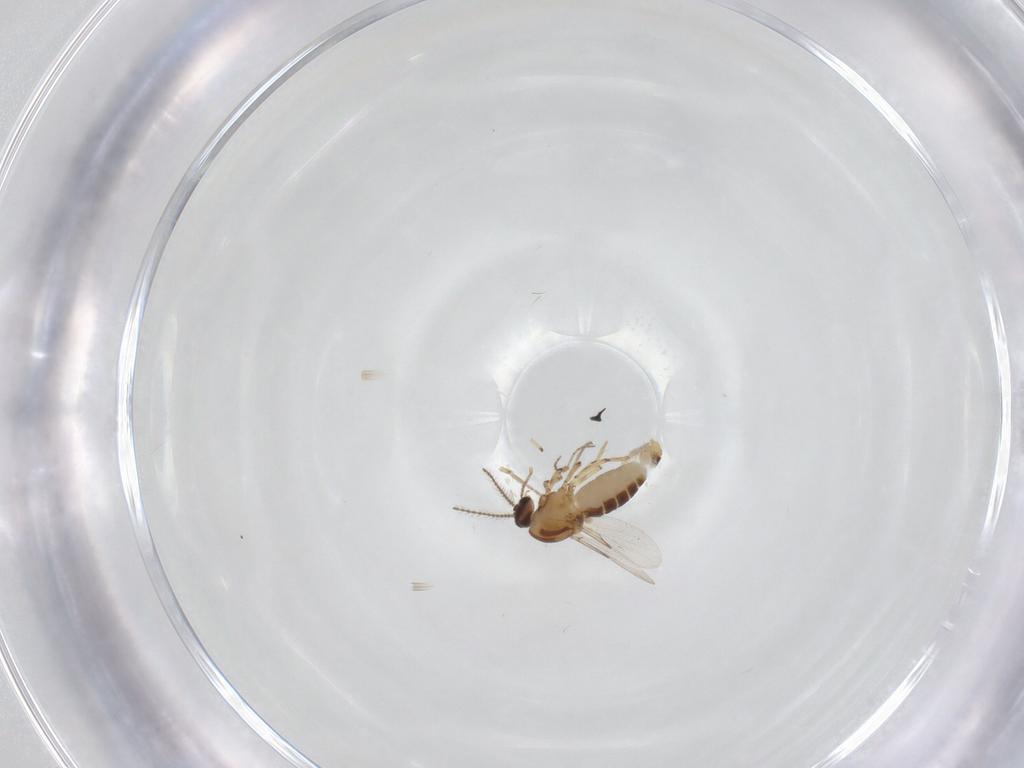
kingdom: Animalia
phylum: Arthropoda
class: Insecta
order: Diptera
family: Ceratopogonidae
